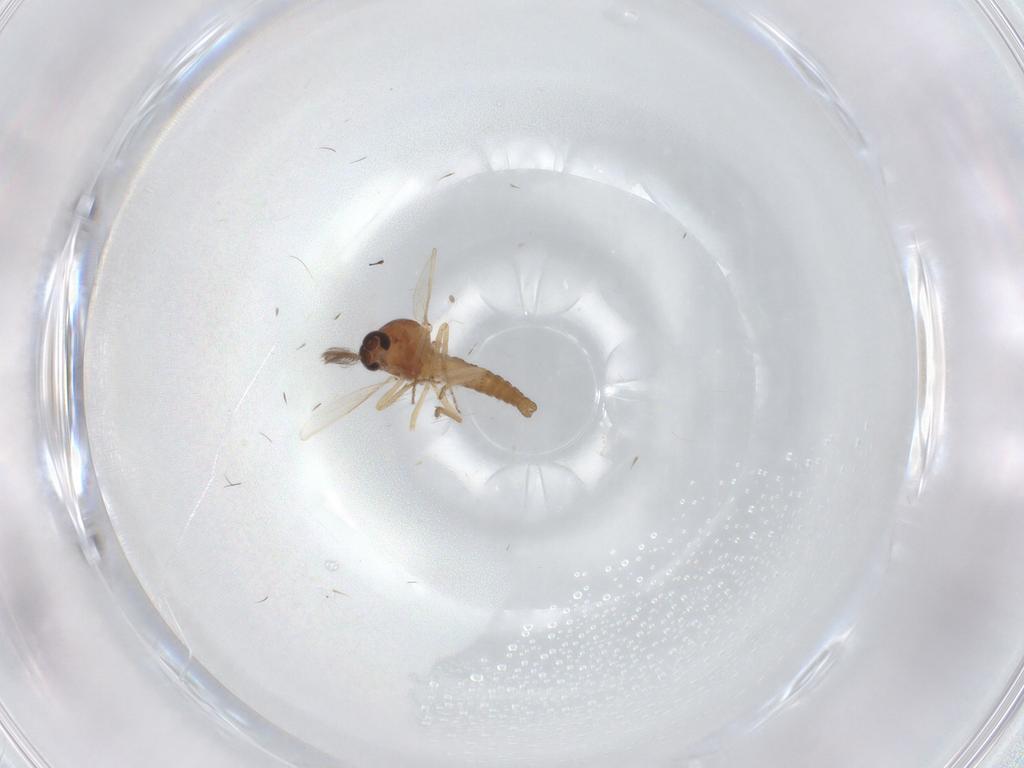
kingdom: Animalia
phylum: Arthropoda
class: Insecta
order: Diptera
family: Ceratopogonidae
